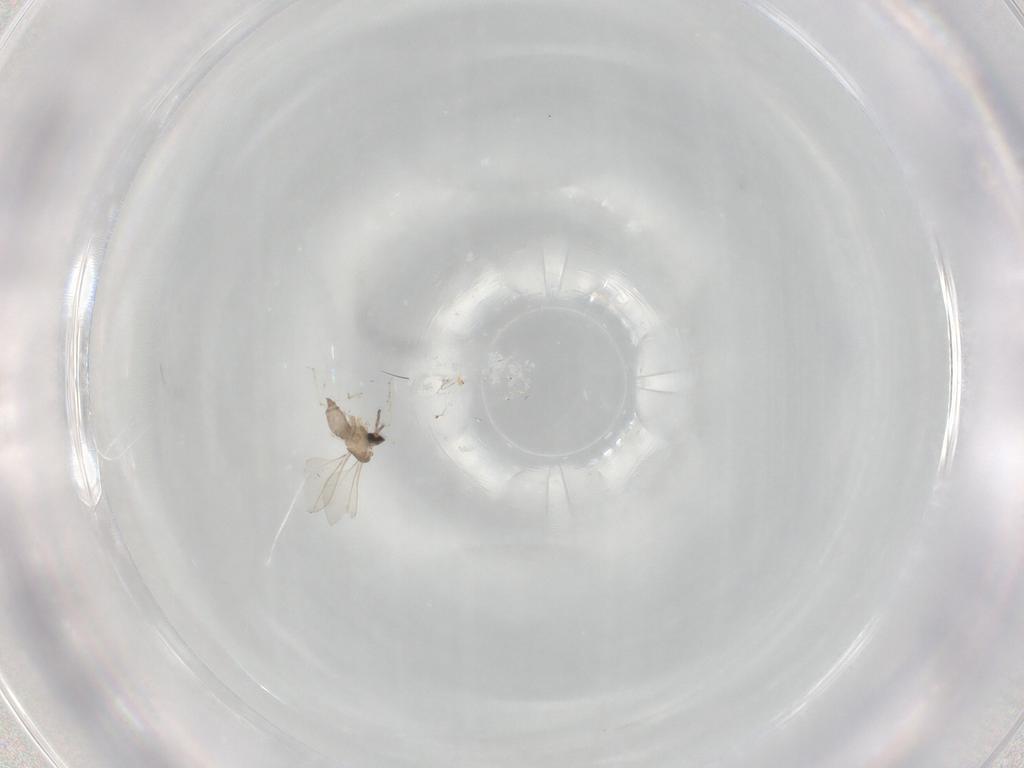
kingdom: Animalia
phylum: Arthropoda
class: Insecta
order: Diptera
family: Cecidomyiidae
